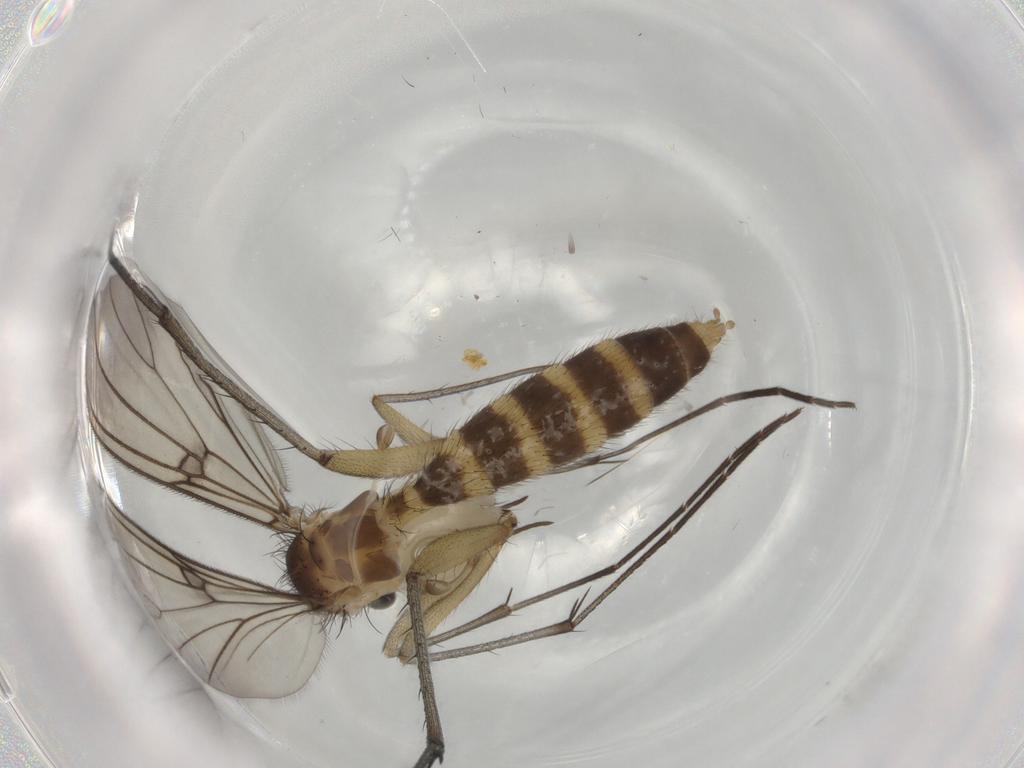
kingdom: Animalia
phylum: Arthropoda
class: Insecta
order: Diptera
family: Mycetophilidae
